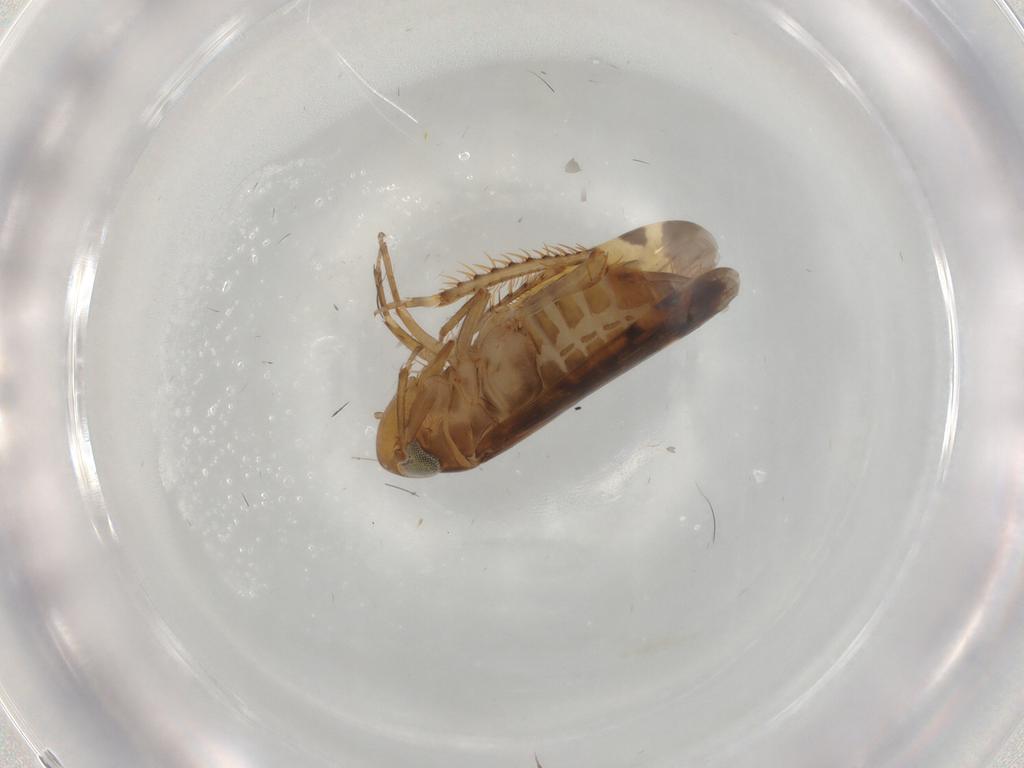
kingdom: Animalia
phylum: Arthropoda
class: Insecta
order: Hemiptera
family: Cicadellidae
